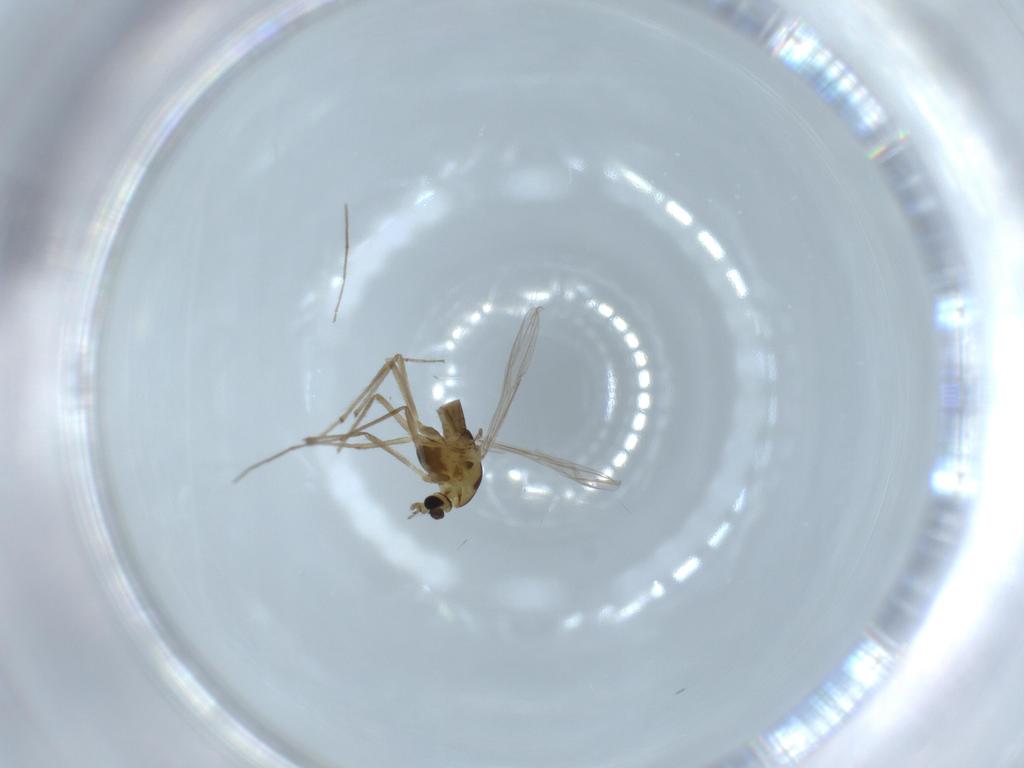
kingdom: Animalia
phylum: Arthropoda
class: Insecta
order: Diptera
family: Chironomidae
